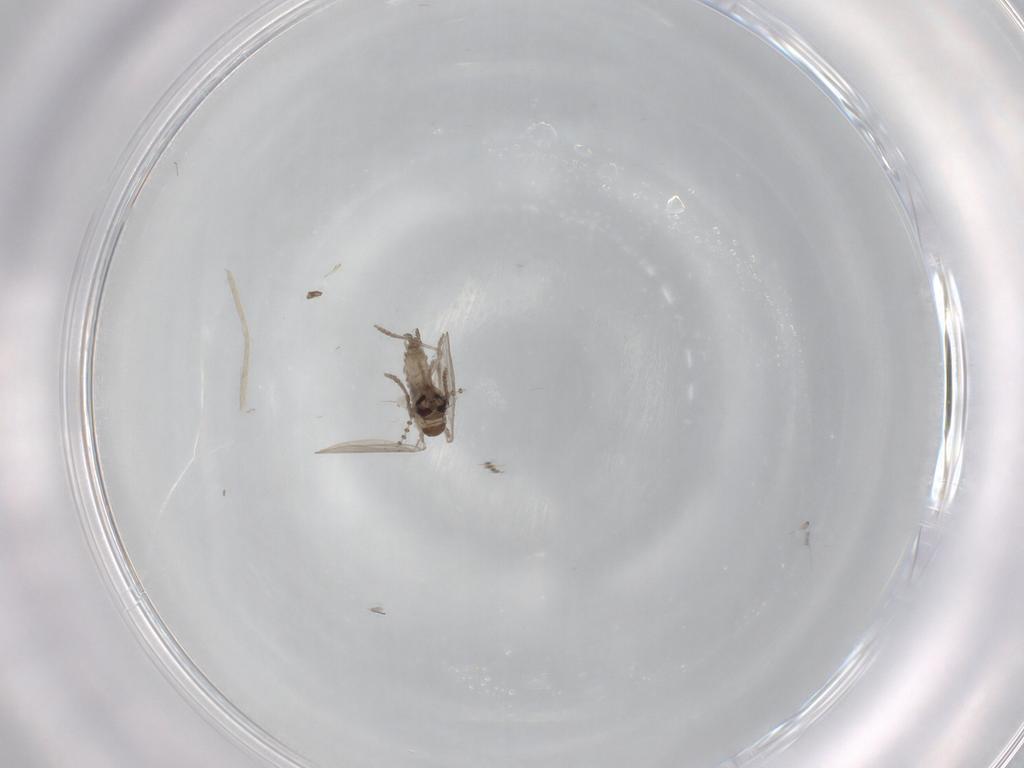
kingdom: Animalia
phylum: Arthropoda
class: Insecta
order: Diptera
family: Psychodidae
